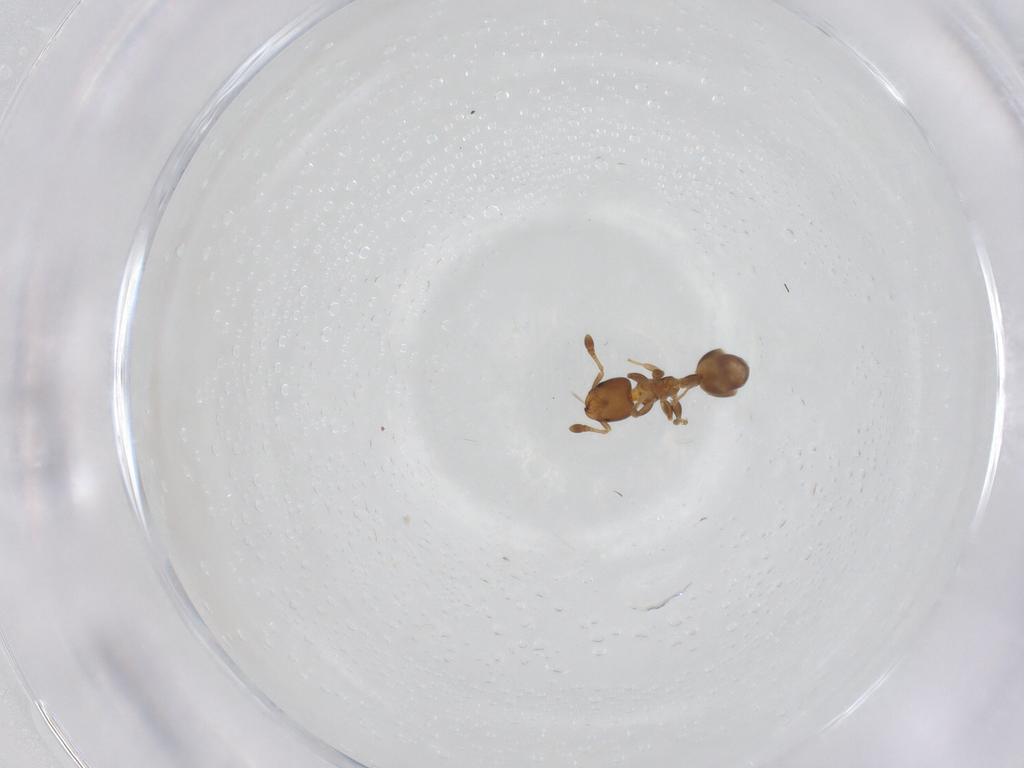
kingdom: Animalia
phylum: Arthropoda
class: Insecta
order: Hymenoptera
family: Formicidae
